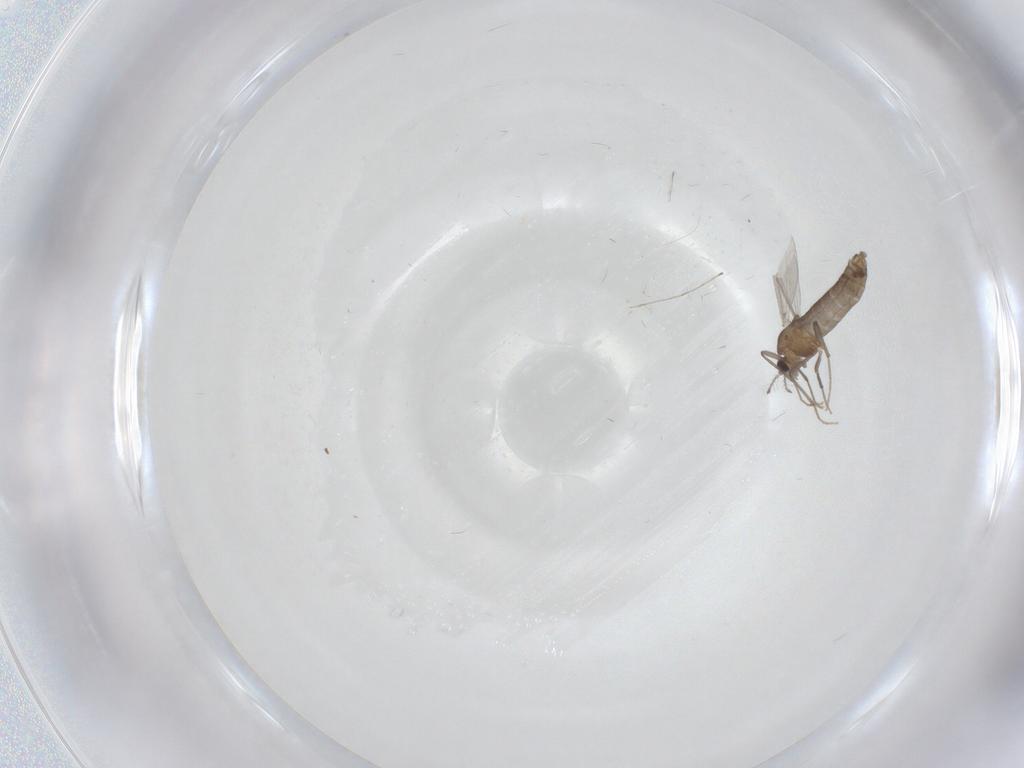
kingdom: Animalia
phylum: Arthropoda
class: Insecta
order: Diptera
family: Chironomidae
